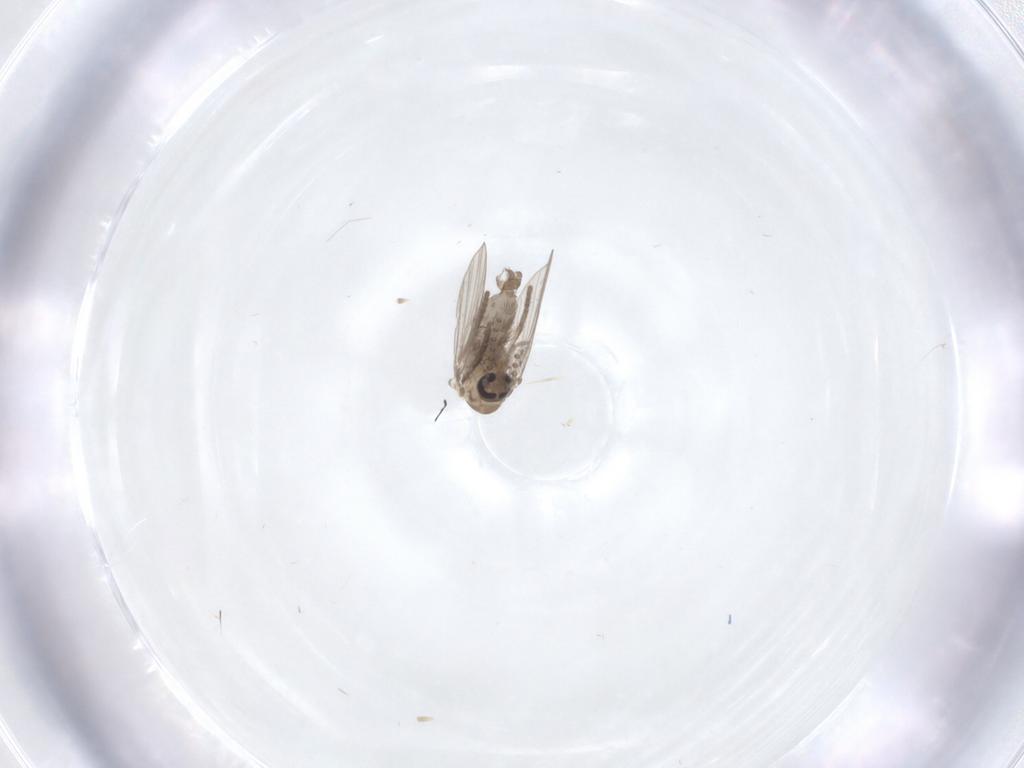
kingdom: Animalia
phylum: Arthropoda
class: Insecta
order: Diptera
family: Psychodidae
